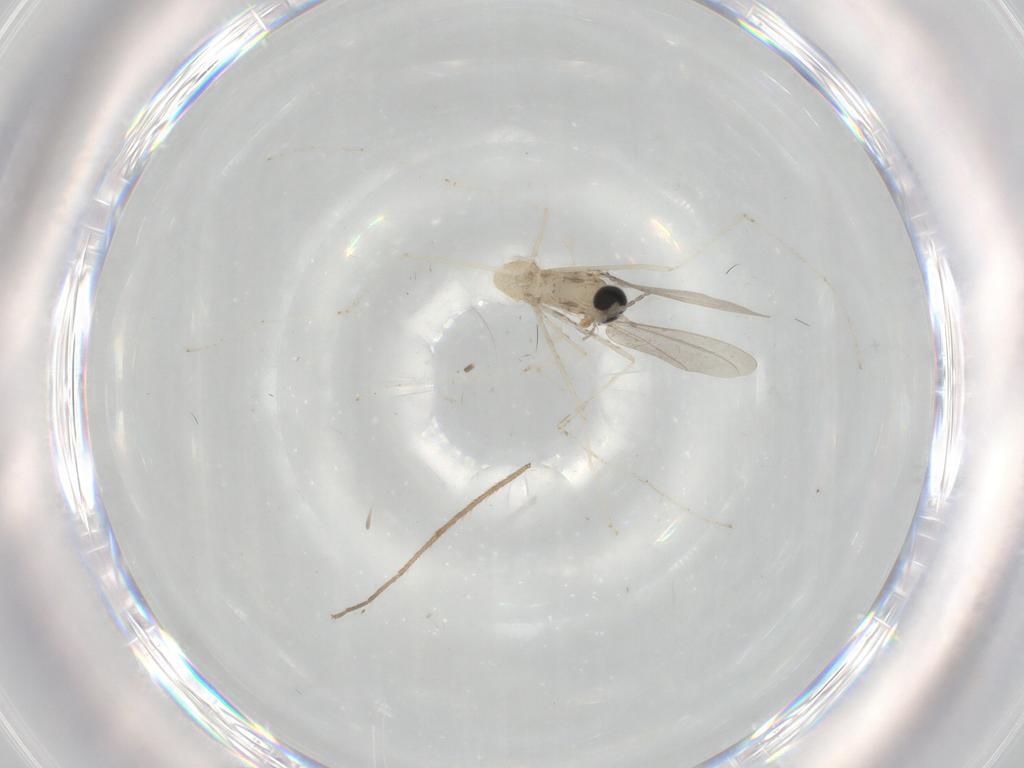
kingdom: Animalia
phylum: Arthropoda
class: Insecta
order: Diptera
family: Cecidomyiidae
